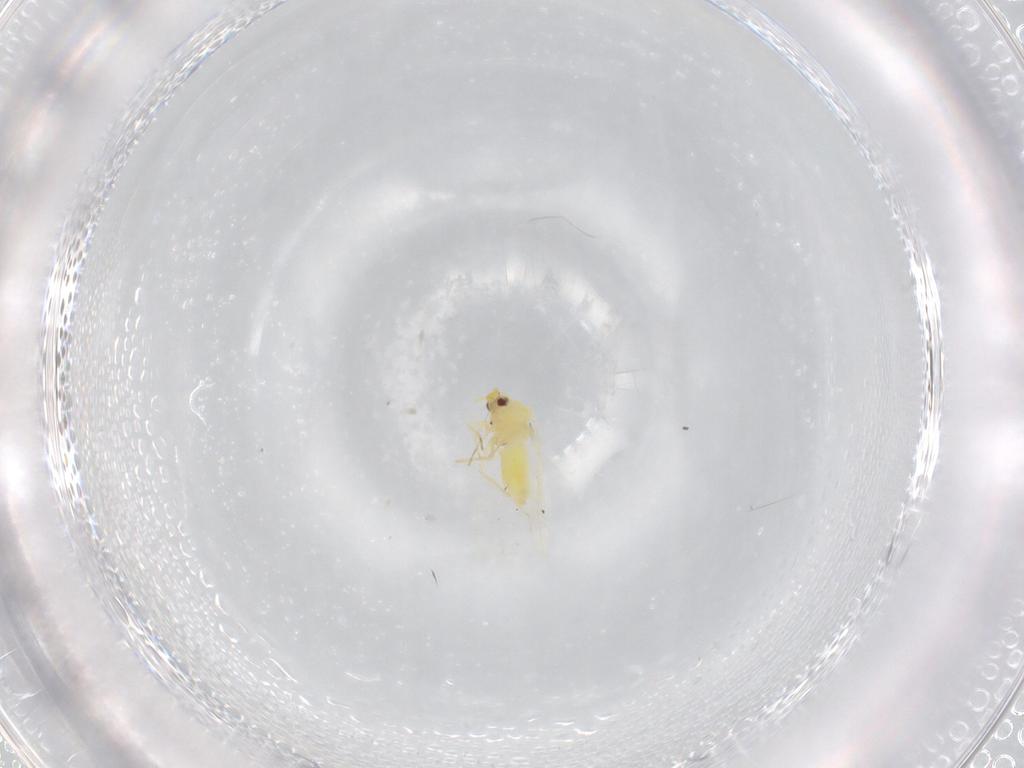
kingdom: Animalia
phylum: Arthropoda
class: Insecta
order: Hemiptera
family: Aleyrodidae
